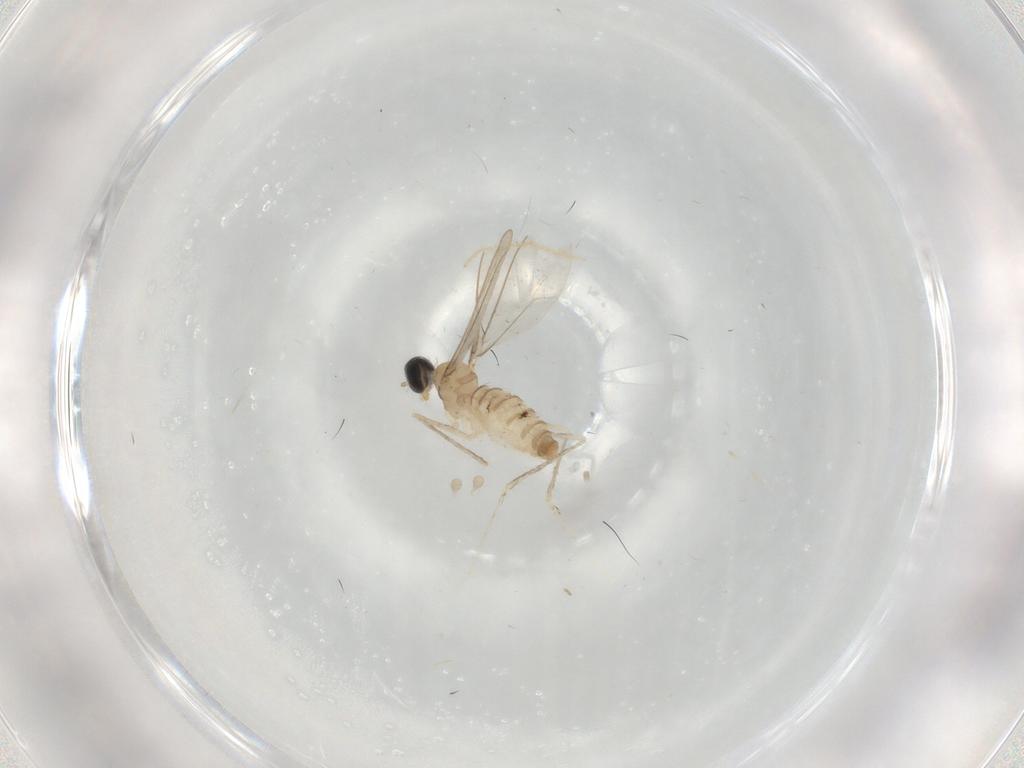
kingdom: Animalia
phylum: Arthropoda
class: Insecta
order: Diptera
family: Cecidomyiidae
